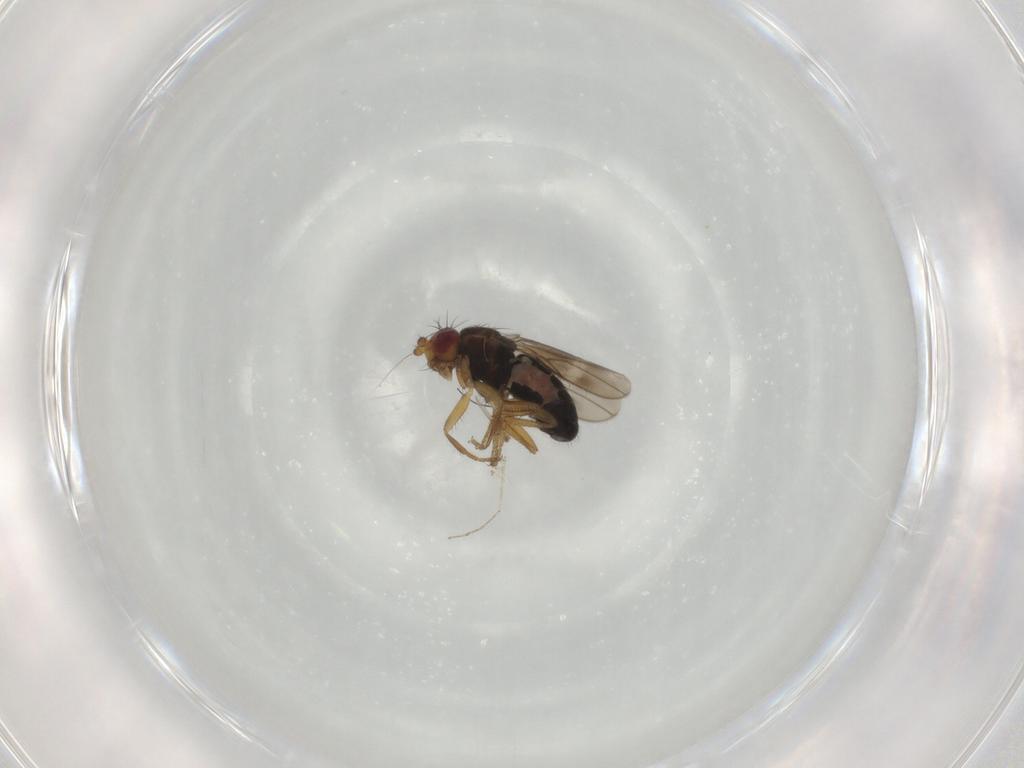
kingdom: Animalia
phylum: Arthropoda
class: Insecta
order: Diptera
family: Sphaeroceridae
